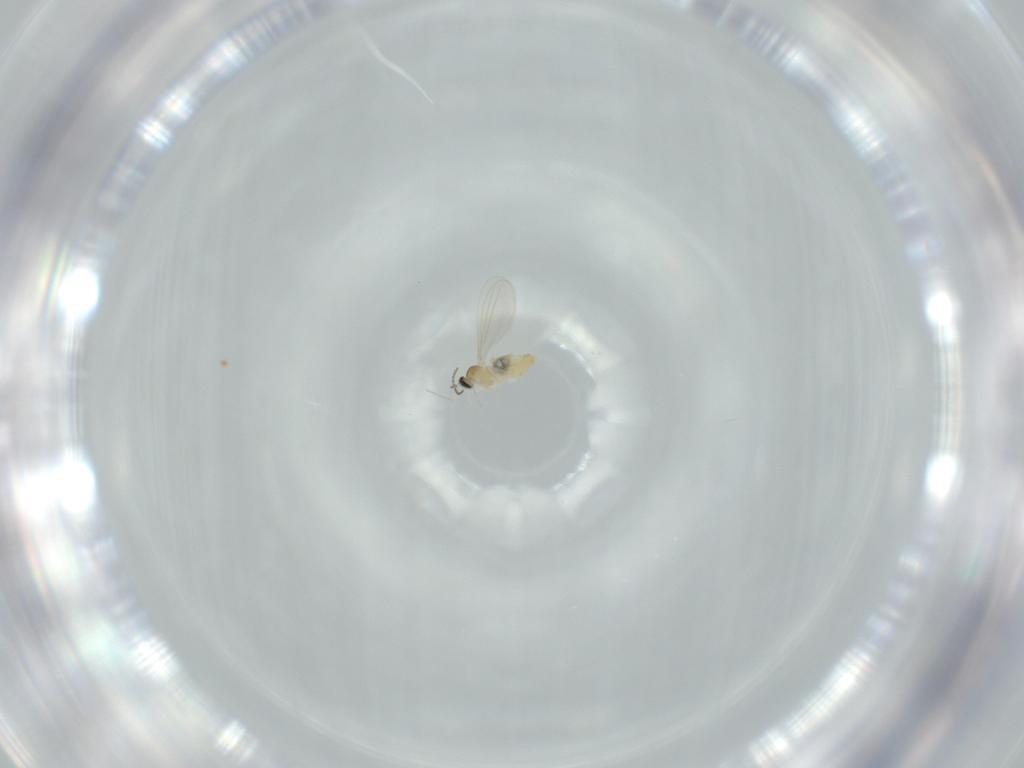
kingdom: Animalia
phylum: Arthropoda
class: Insecta
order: Diptera
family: Cecidomyiidae
